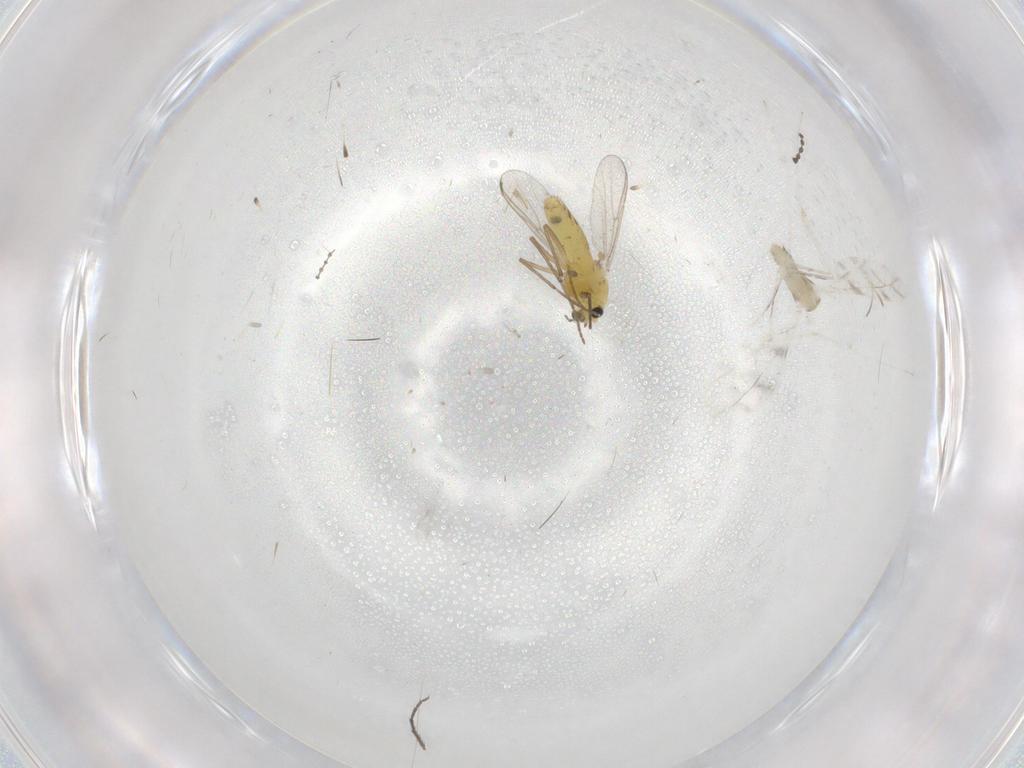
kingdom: Animalia
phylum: Arthropoda
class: Insecta
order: Diptera
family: Chironomidae
